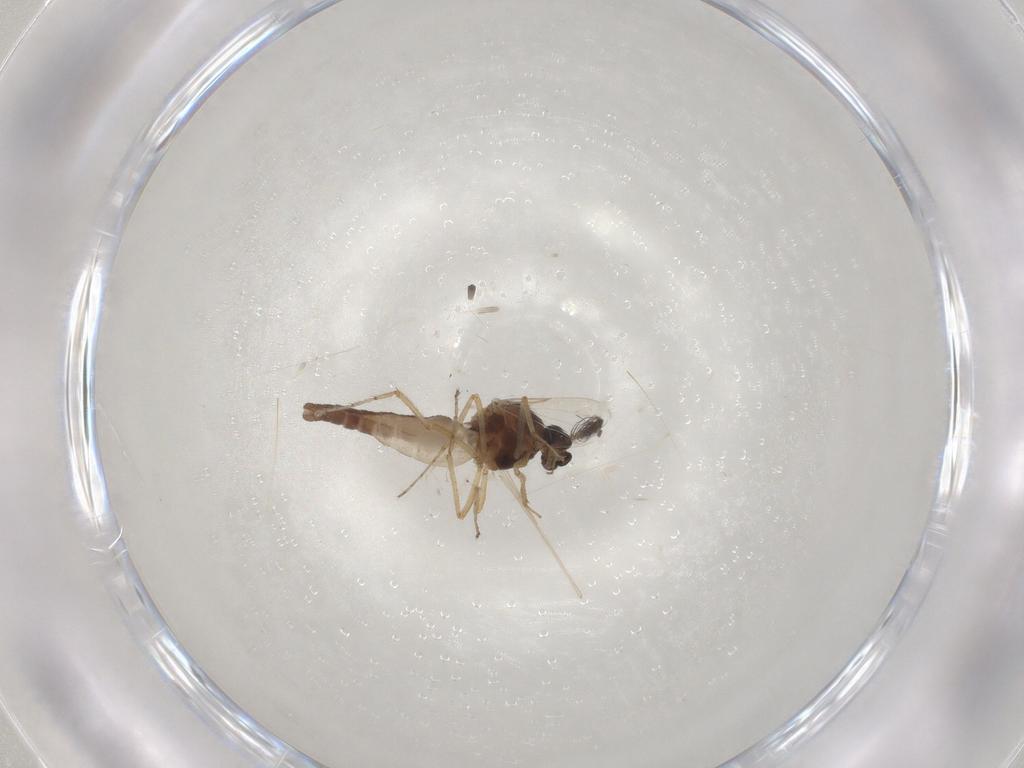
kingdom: Animalia
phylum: Arthropoda
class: Insecta
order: Diptera
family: Ceratopogonidae
